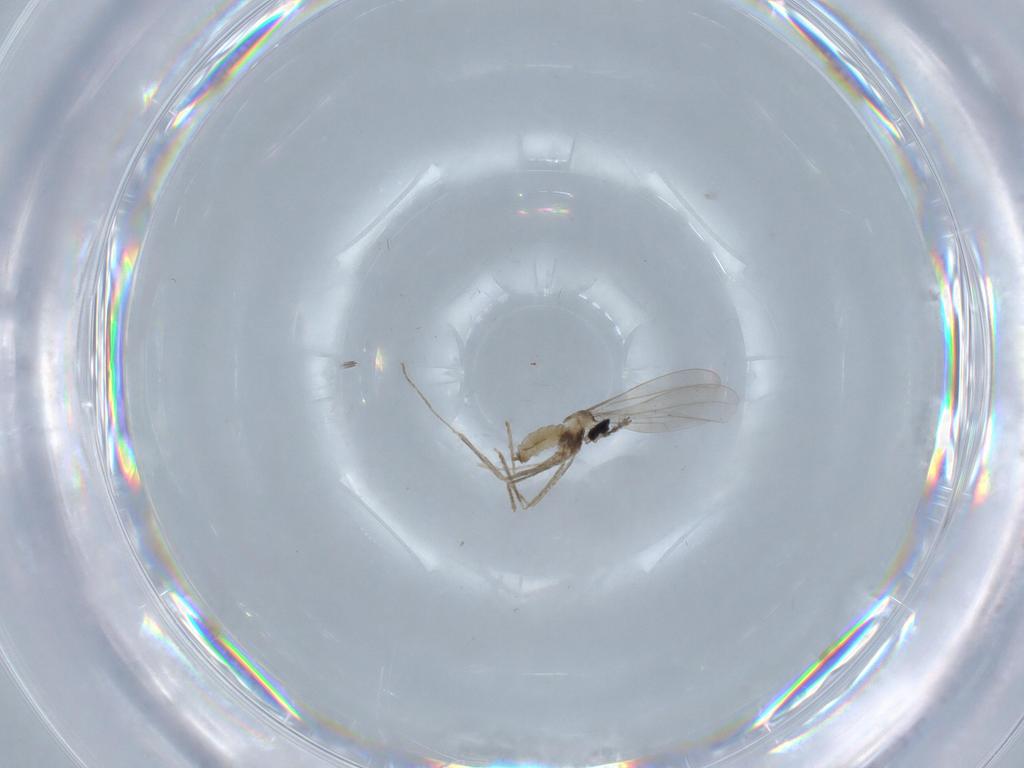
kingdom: Animalia
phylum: Arthropoda
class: Insecta
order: Diptera
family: Cecidomyiidae
